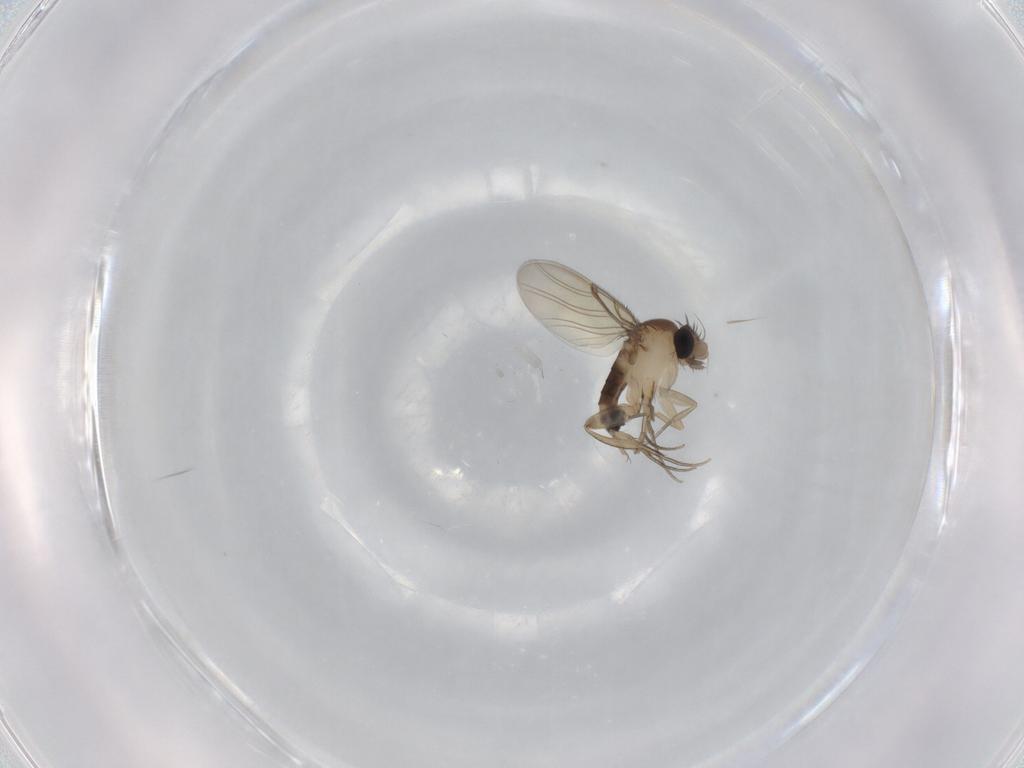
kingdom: Animalia
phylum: Arthropoda
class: Insecta
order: Diptera
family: Phoridae
